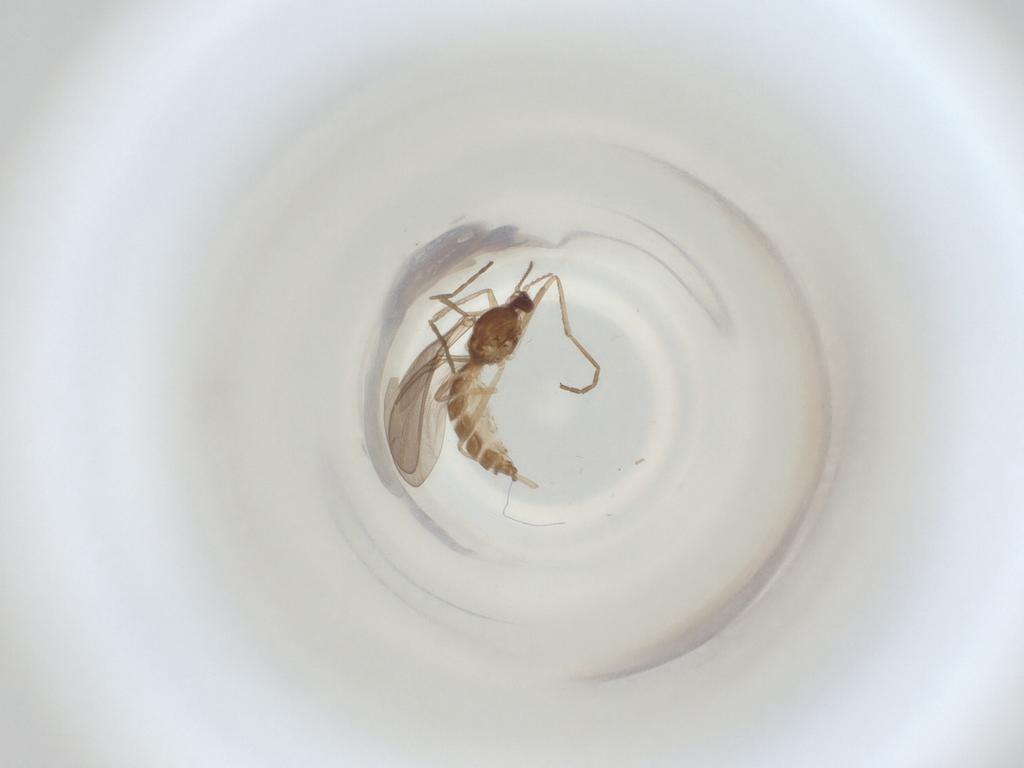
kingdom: Animalia
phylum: Arthropoda
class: Insecta
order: Diptera
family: Cecidomyiidae
